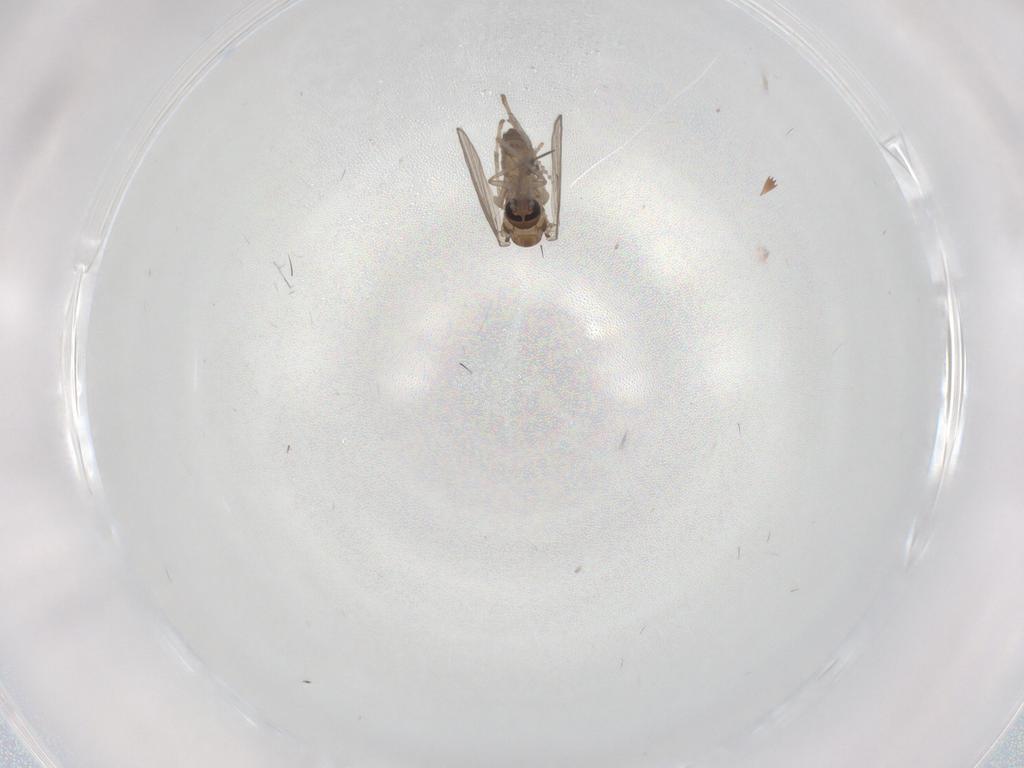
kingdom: Animalia
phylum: Arthropoda
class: Insecta
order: Diptera
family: Psychodidae
